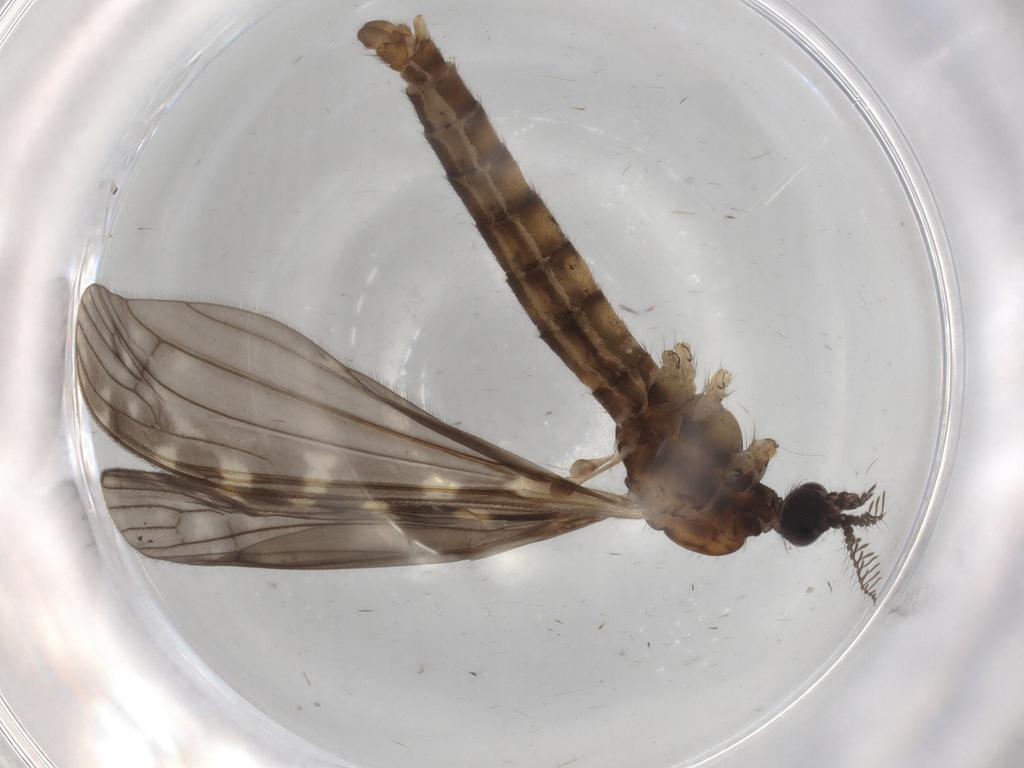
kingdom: Animalia
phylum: Arthropoda
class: Insecta
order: Diptera
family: Limoniidae
